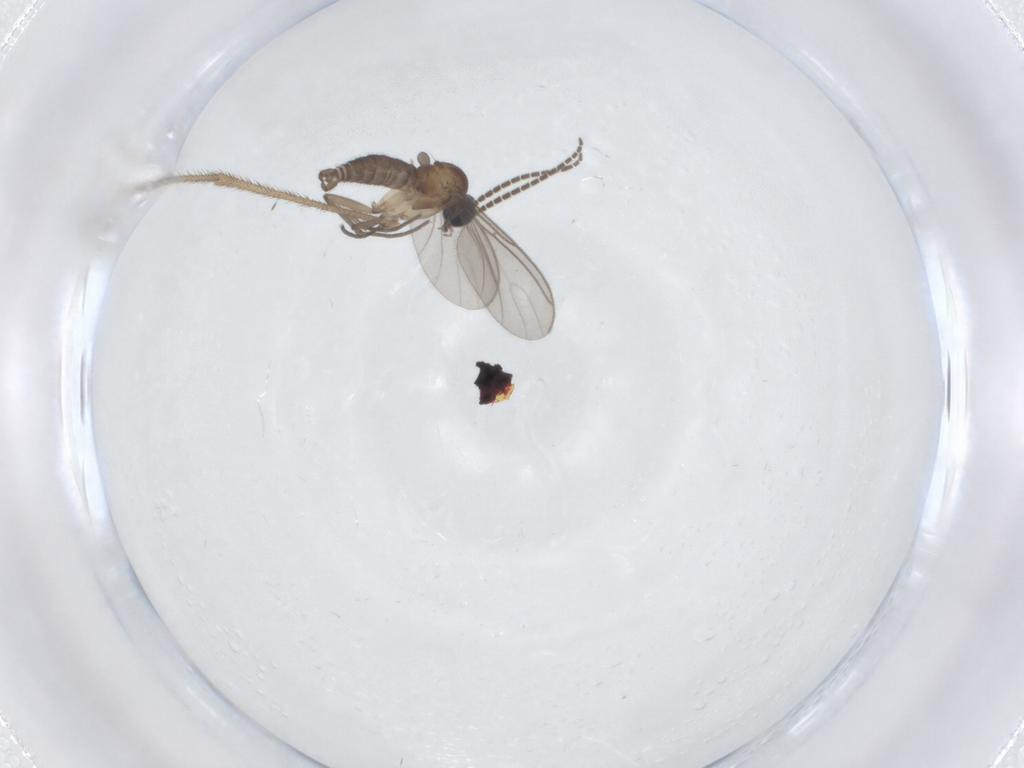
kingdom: Animalia
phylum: Arthropoda
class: Insecta
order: Diptera
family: Sciaridae
